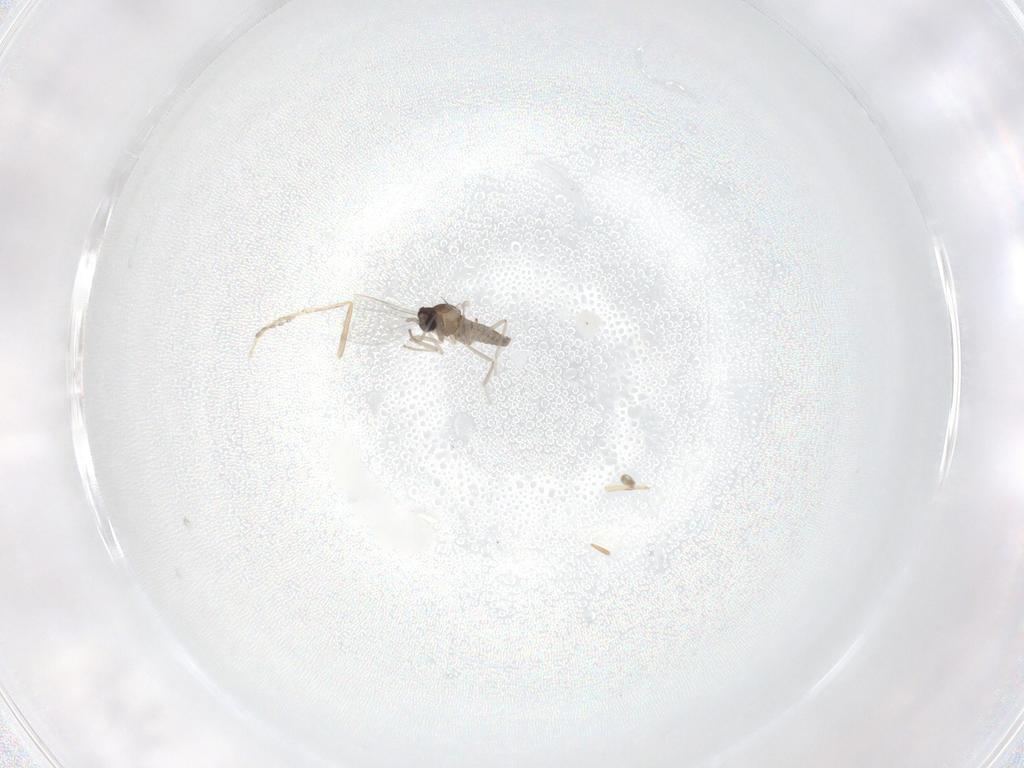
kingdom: Animalia
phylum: Arthropoda
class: Insecta
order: Diptera
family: Cecidomyiidae
